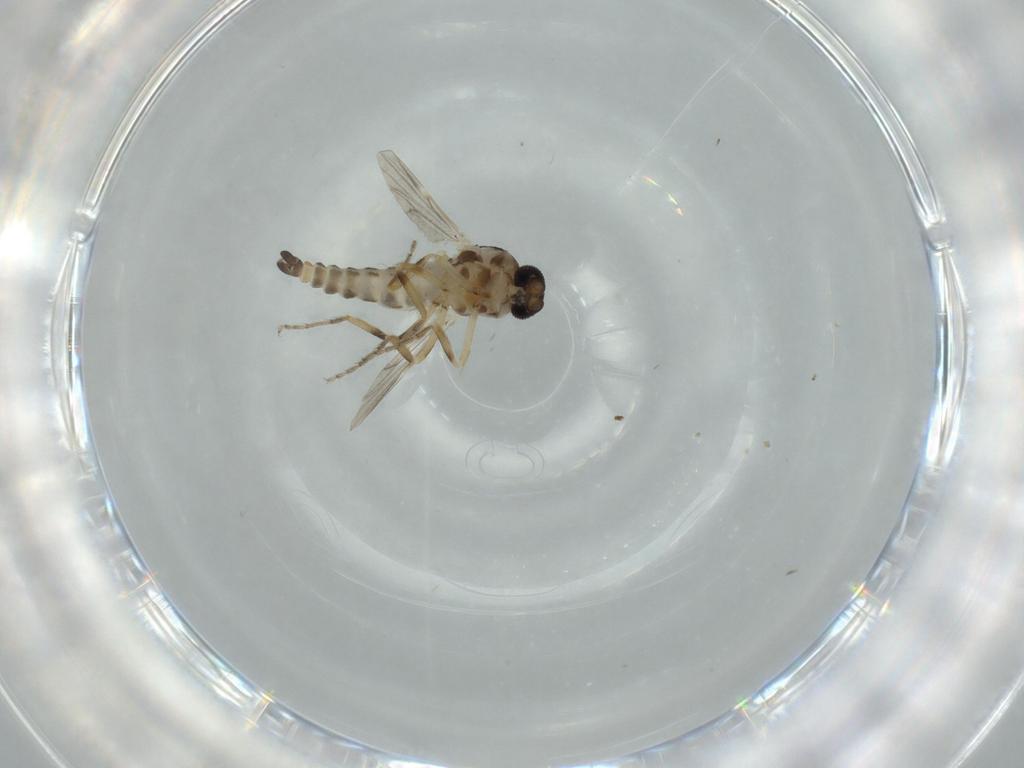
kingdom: Animalia
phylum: Arthropoda
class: Insecta
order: Diptera
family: Ceratopogonidae
